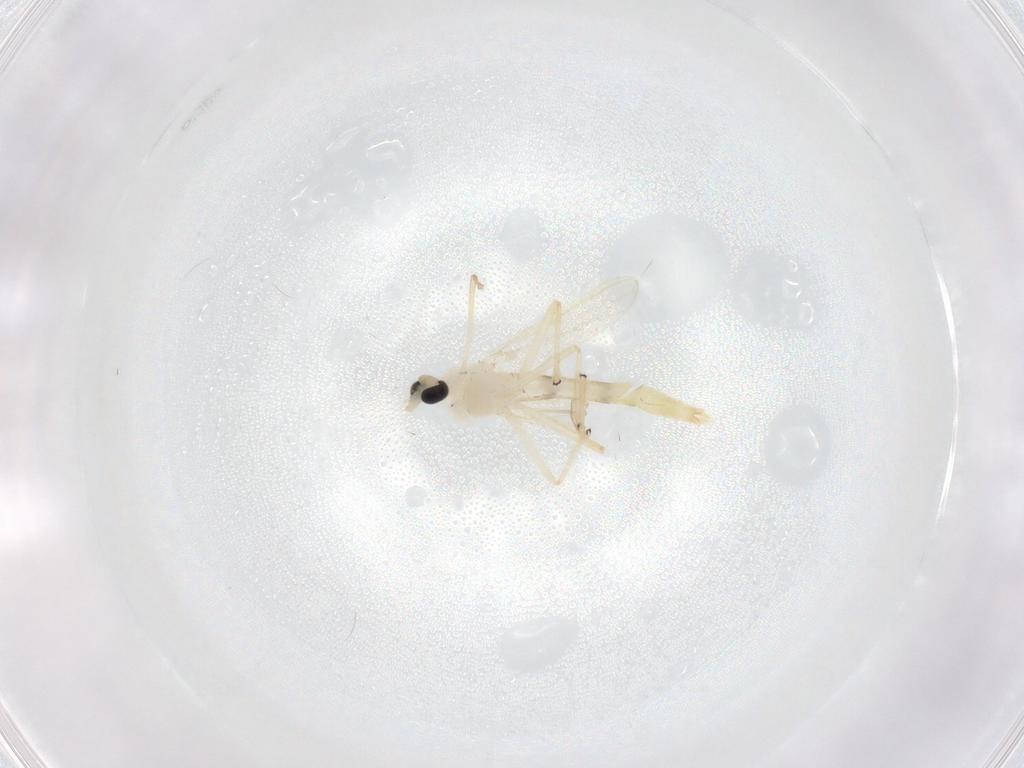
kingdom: Animalia
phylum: Arthropoda
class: Insecta
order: Diptera
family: Chironomidae
